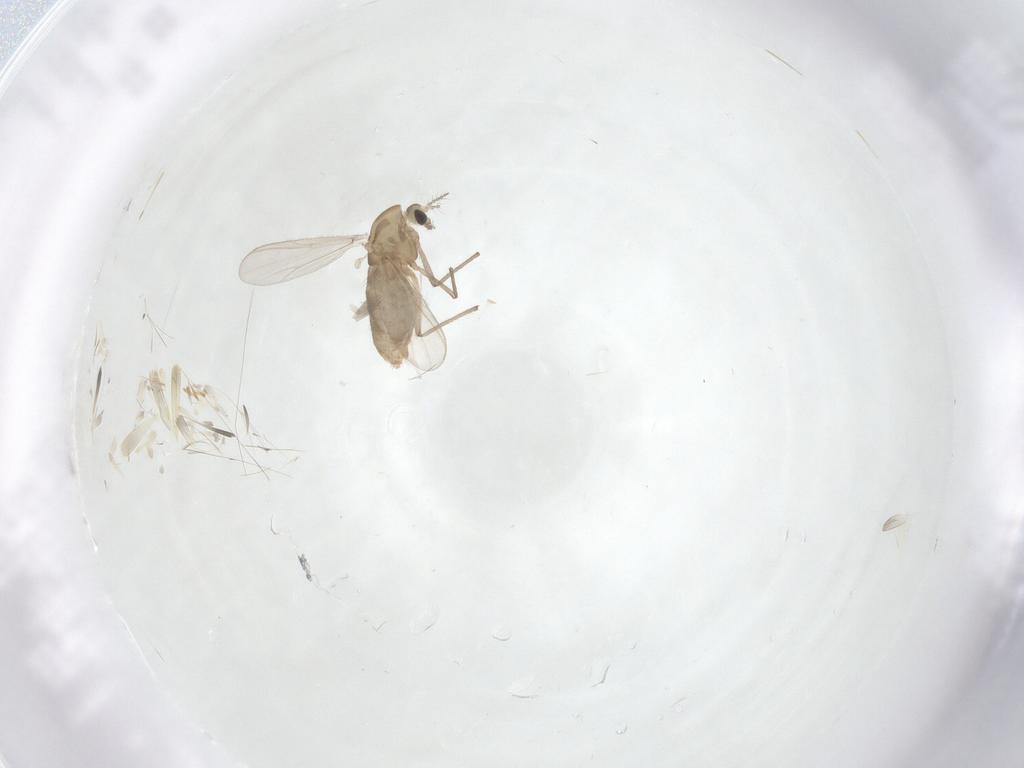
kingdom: Animalia
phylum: Arthropoda
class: Insecta
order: Diptera
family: Chironomidae
